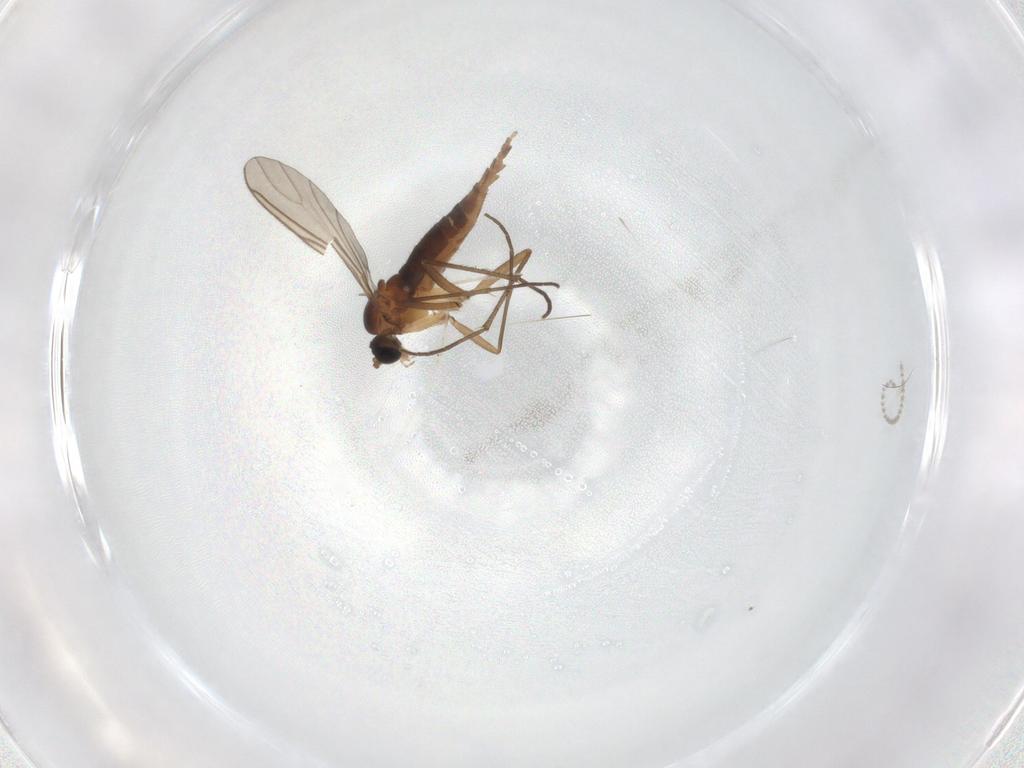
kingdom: Animalia
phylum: Arthropoda
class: Insecta
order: Diptera
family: Sciaridae
